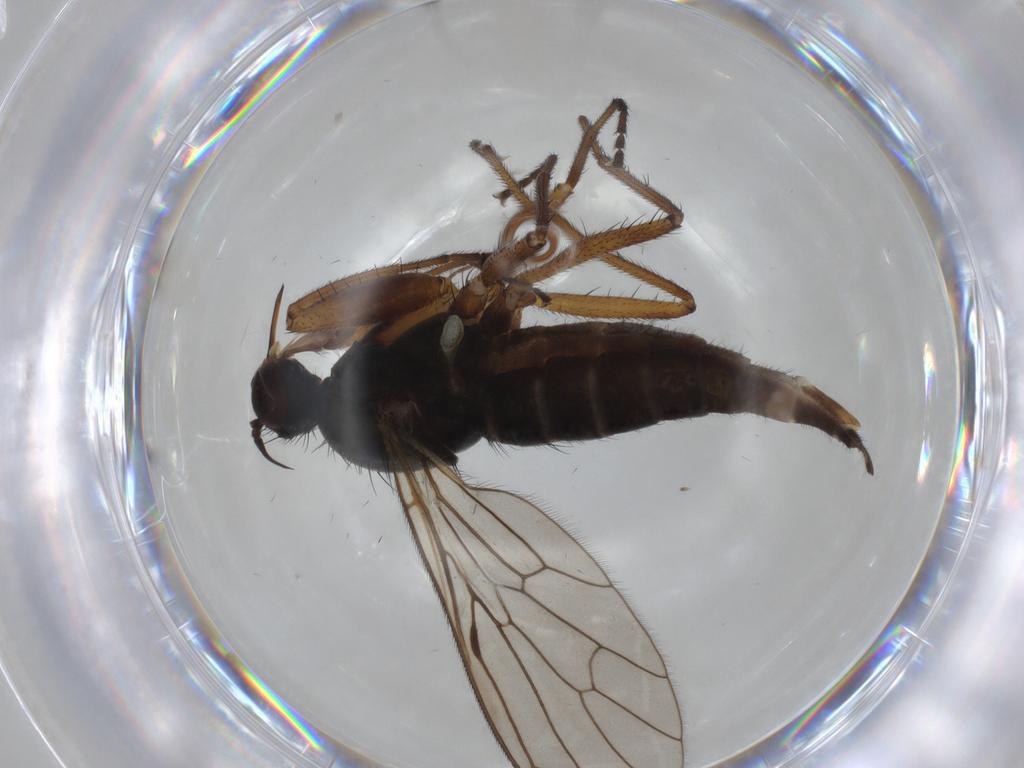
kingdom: Animalia
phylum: Arthropoda
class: Insecta
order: Diptera
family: Empididae
